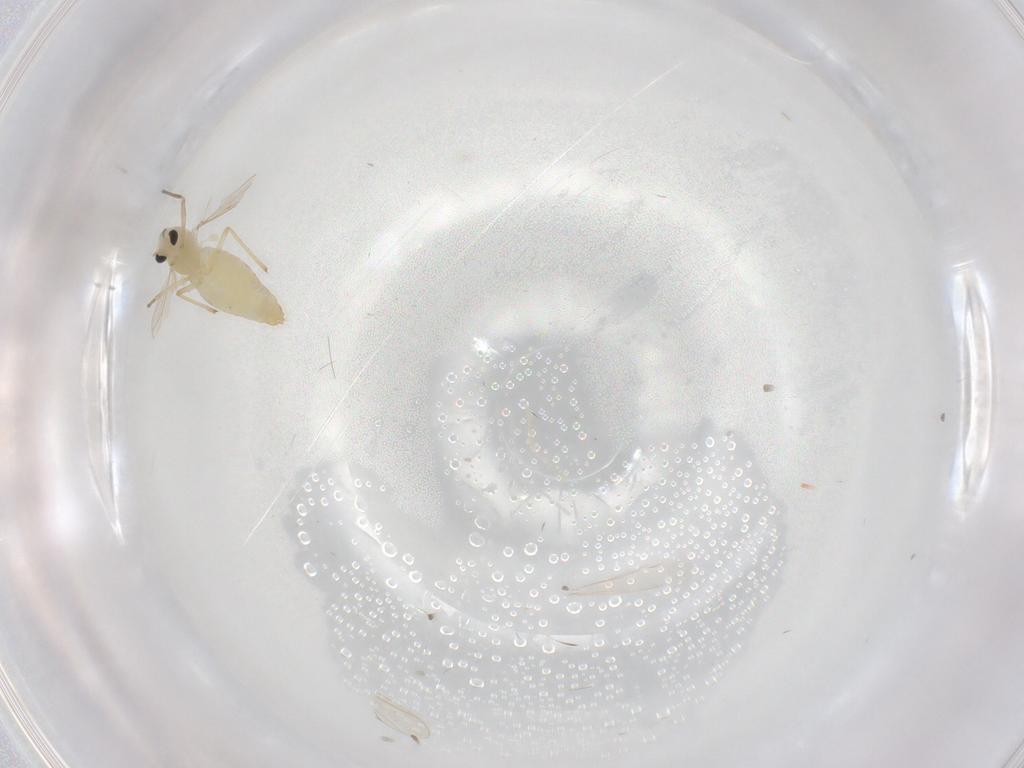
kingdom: Animalia
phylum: Arthropoda
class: Insecta
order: Diptera
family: Chironomidae
